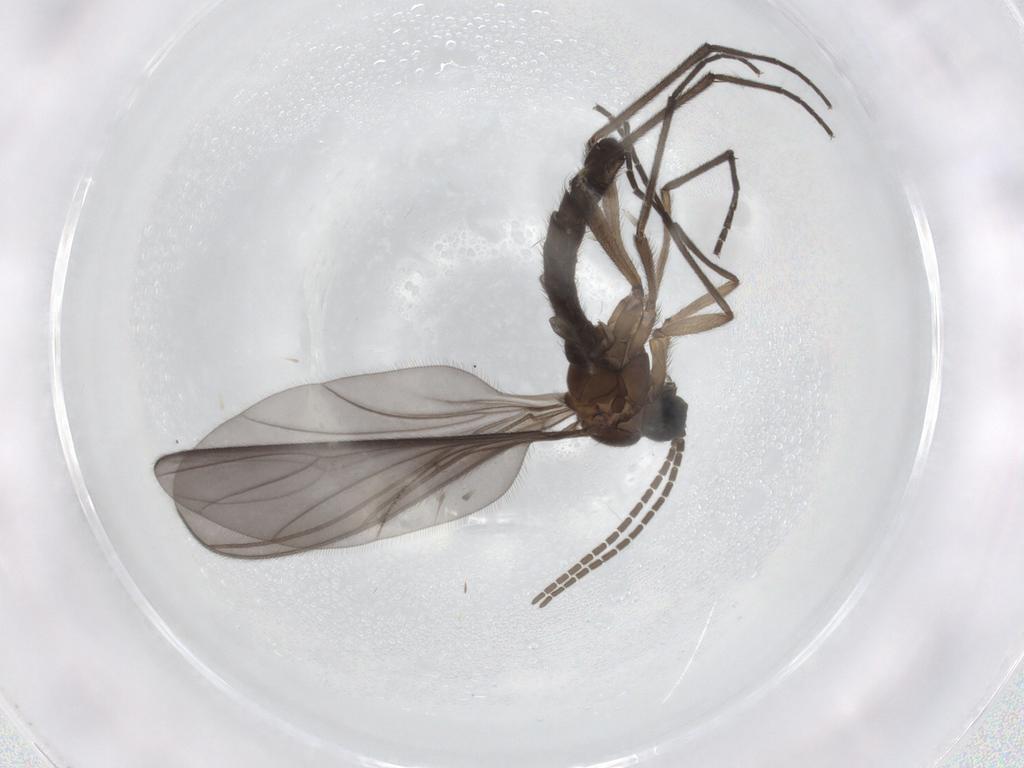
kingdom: Animalia
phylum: Arthropoda
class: Insecta
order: Diptera
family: Sciaridae
